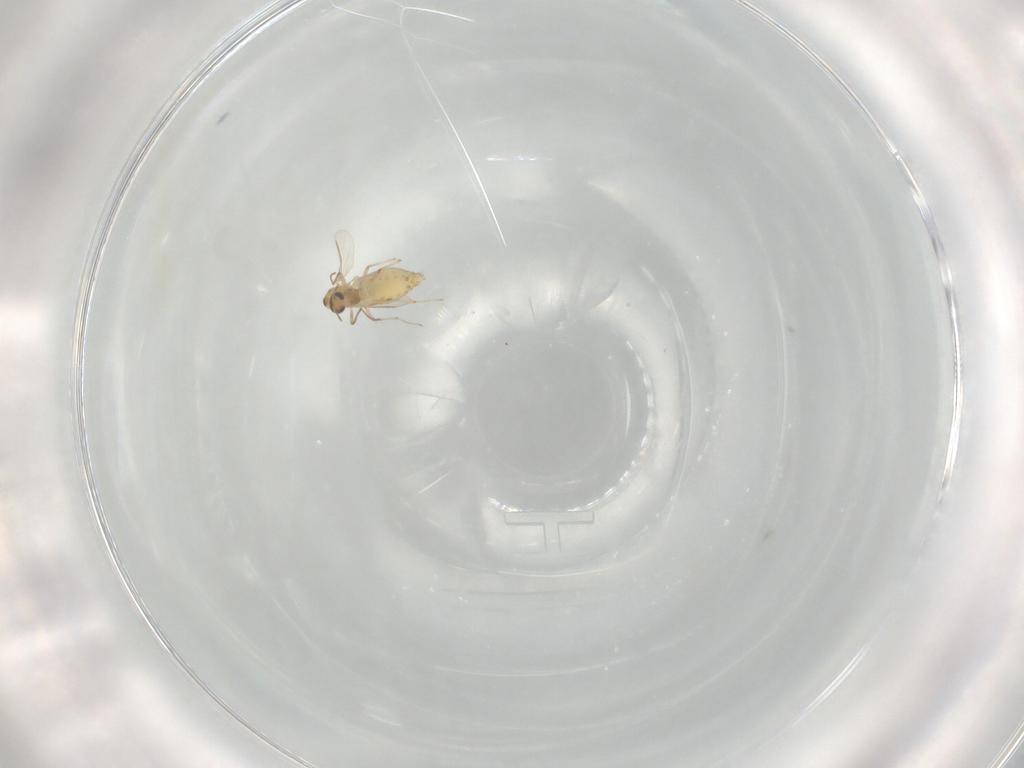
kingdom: Animalia
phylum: Arthropoda
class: Insecta
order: Diptera
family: Chironomidae
